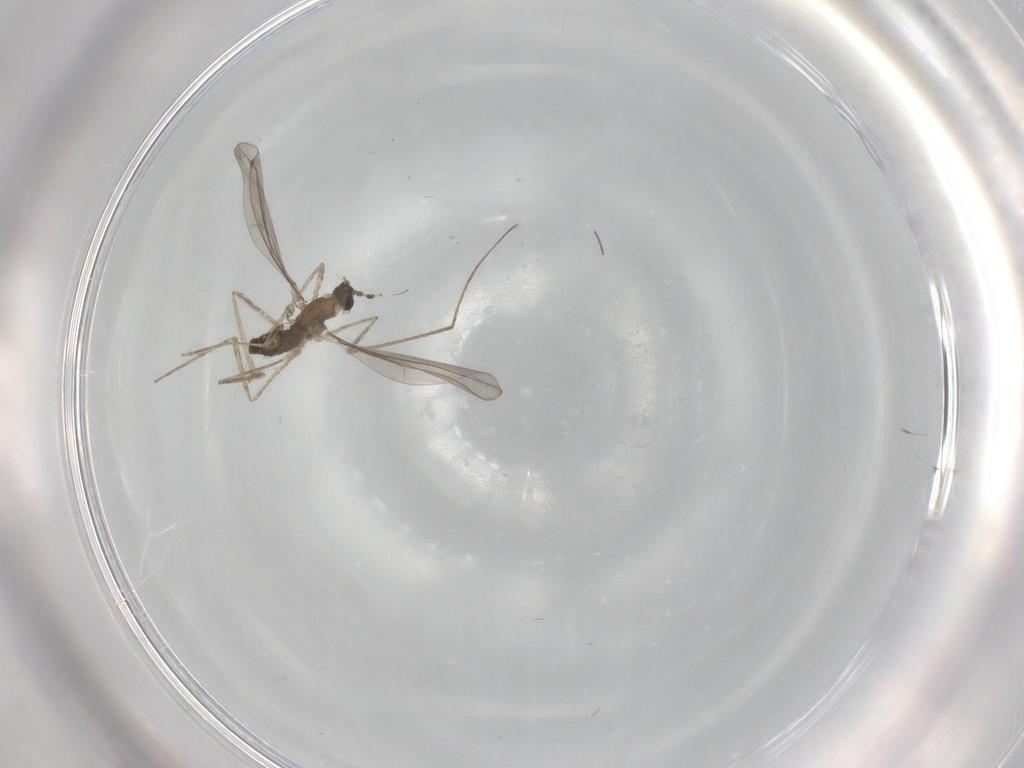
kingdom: Animalia
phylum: Arthropoda
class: Insecta
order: Diptera
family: Cecidomyiidae
